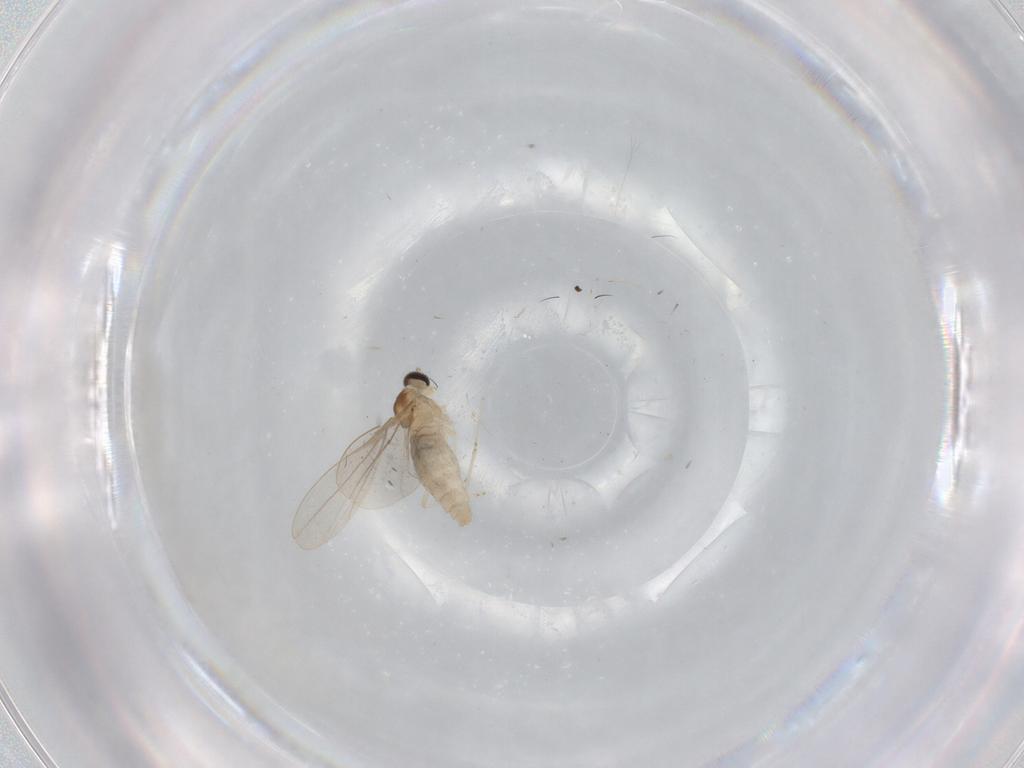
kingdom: Animalia
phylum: Arthropoda
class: Insecta
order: Diptera
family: Cecidomyiidae
